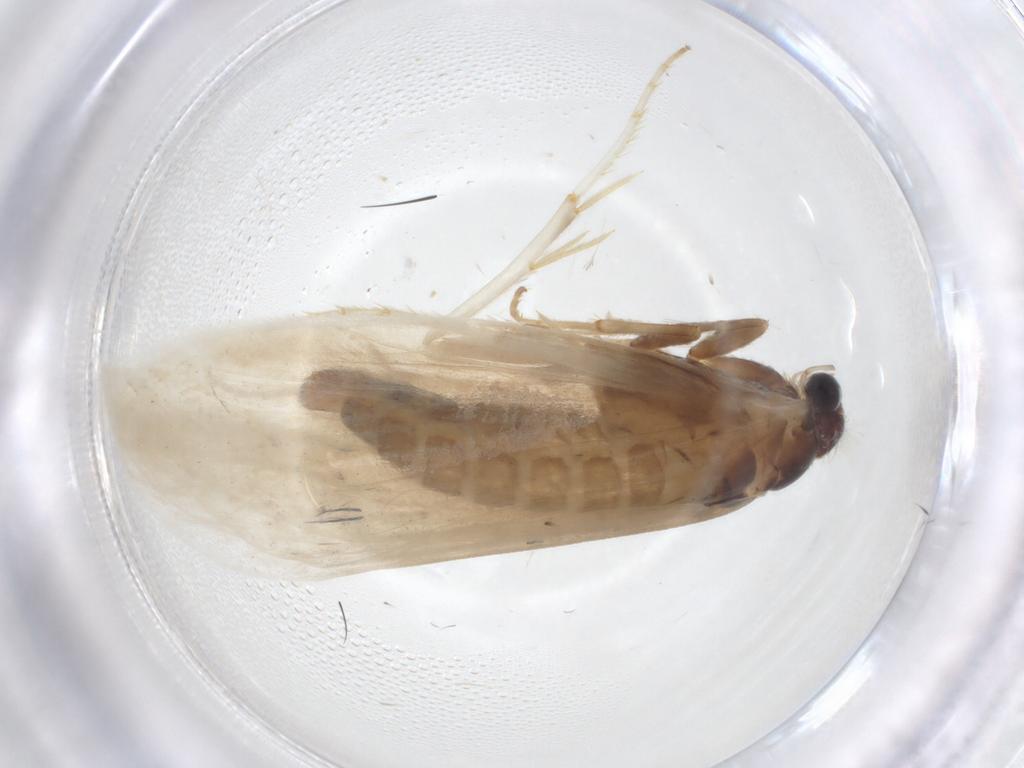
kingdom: Animalia
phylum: Arthropoda
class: Insecta
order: Lepidoptera
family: Tridentaformidae
